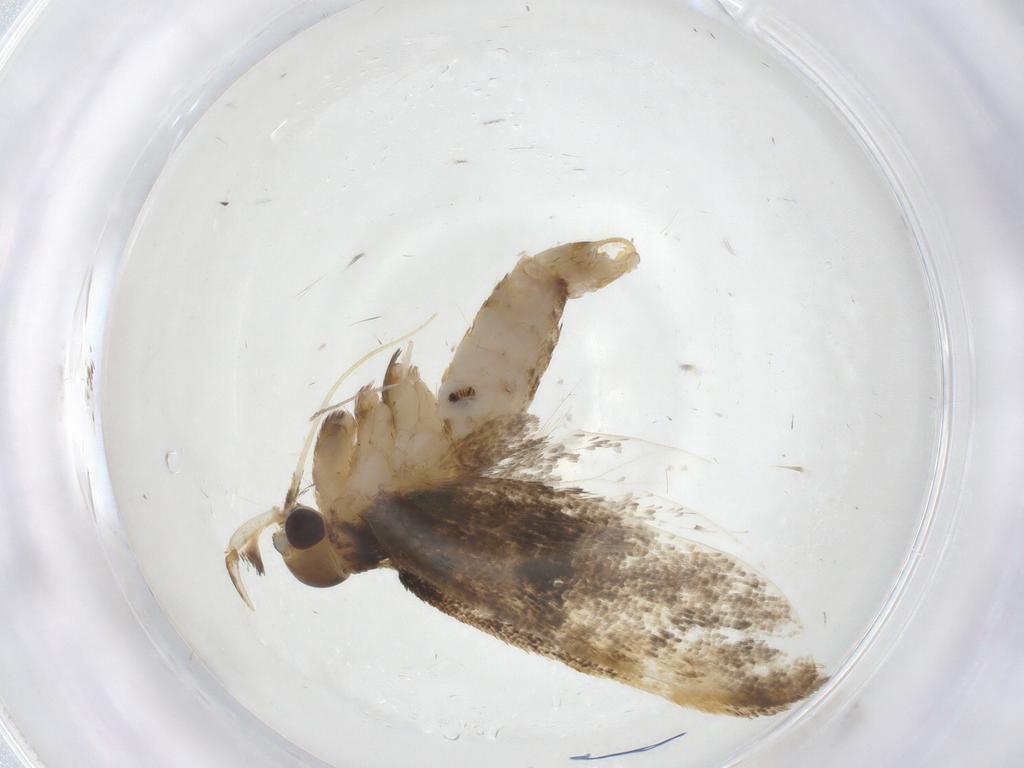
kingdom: Animalia
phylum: Arthropoda
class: Insecta
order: Lepidoptera
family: Lecithoceridae
